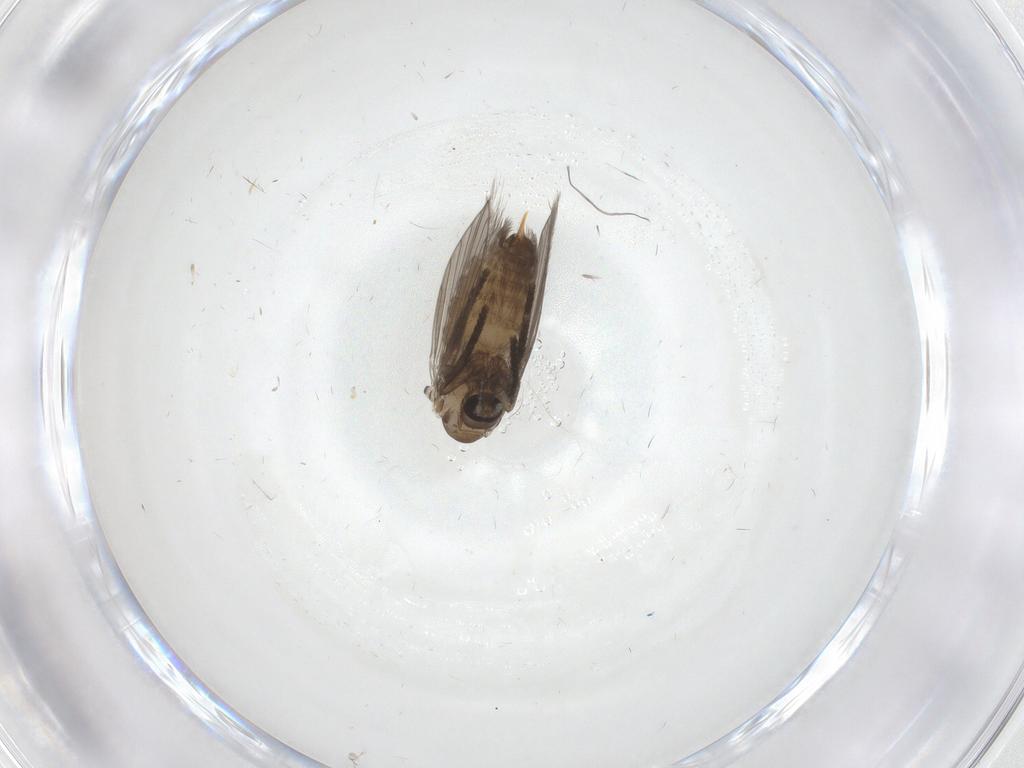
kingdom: Animalia
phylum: Arthropoda
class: Insecta
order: Diptera
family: Psychodidae
